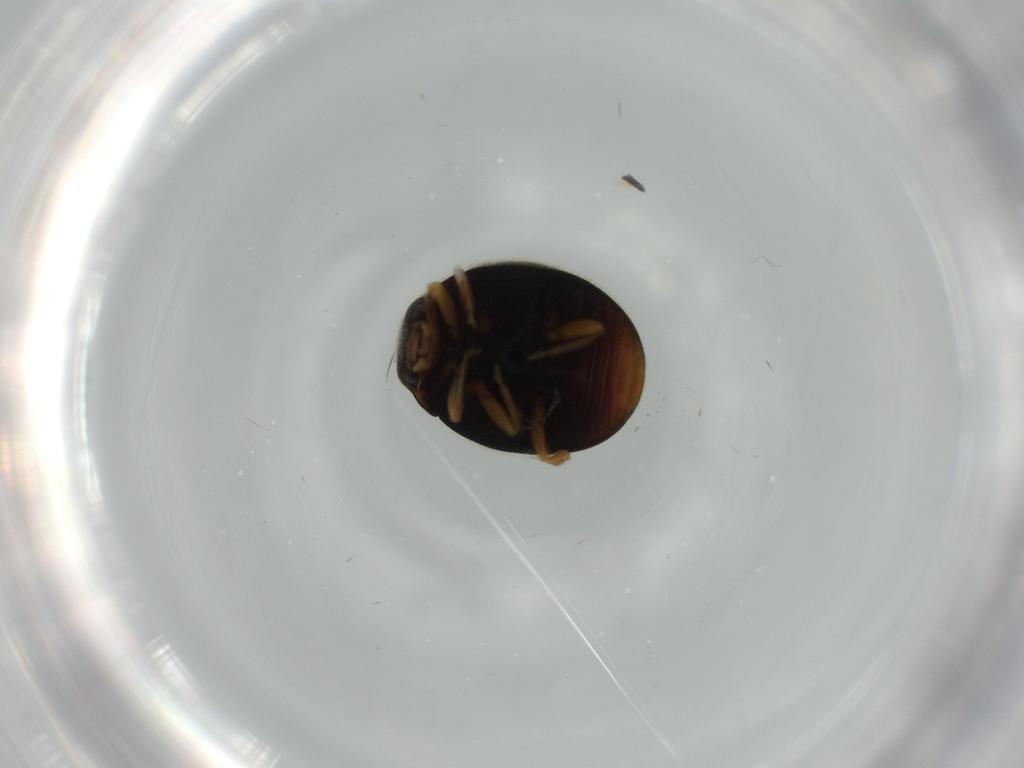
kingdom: Animalia
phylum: Arthropoda
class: Insecta
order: Coleoptera
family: Coccinellidae
